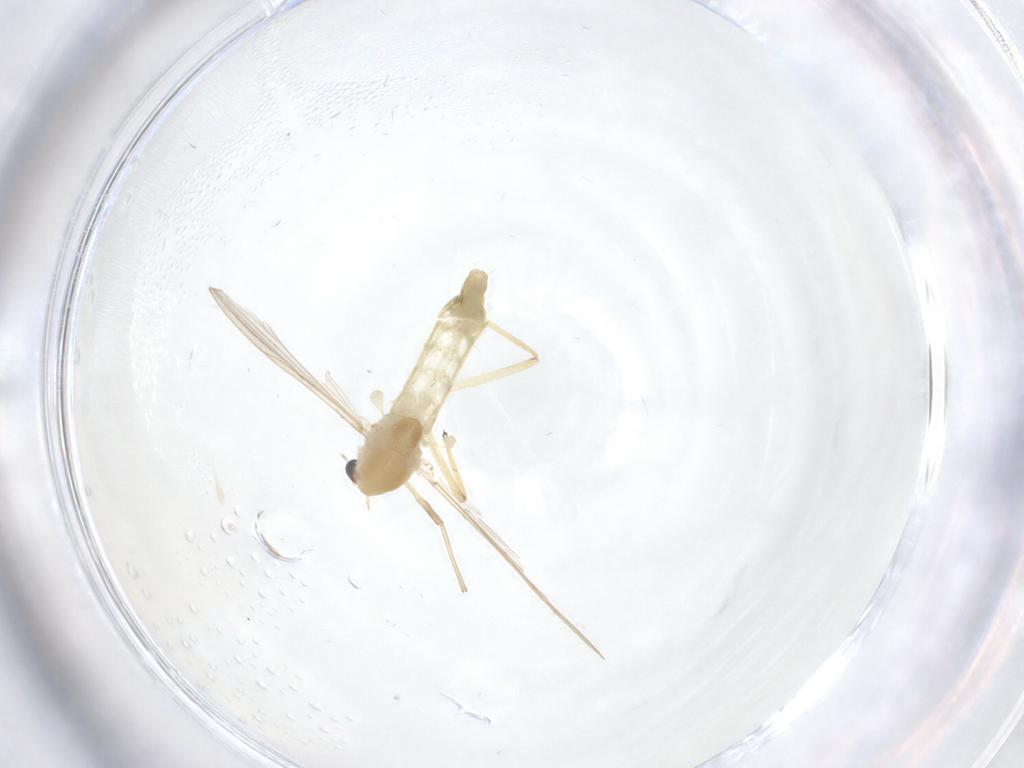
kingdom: Animalia
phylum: Arthropoda
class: Insecta
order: Diptera
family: Chironomidae
